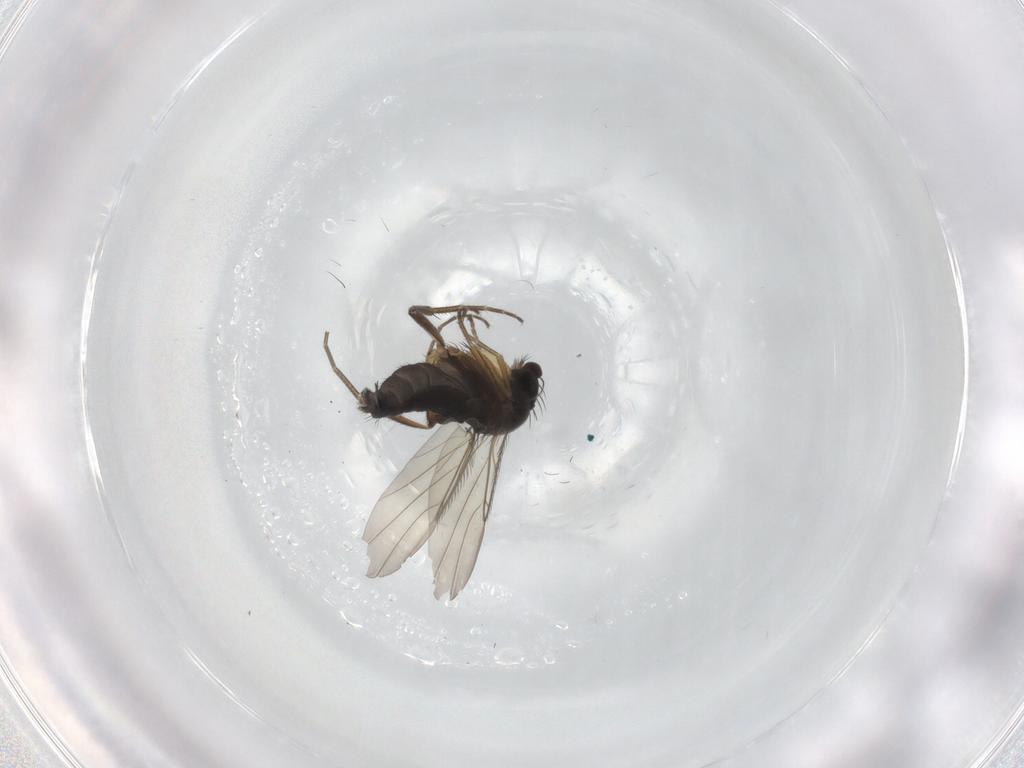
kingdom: Animalia
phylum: Arthropoda
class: Insecta
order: Diptera
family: Phoridae
